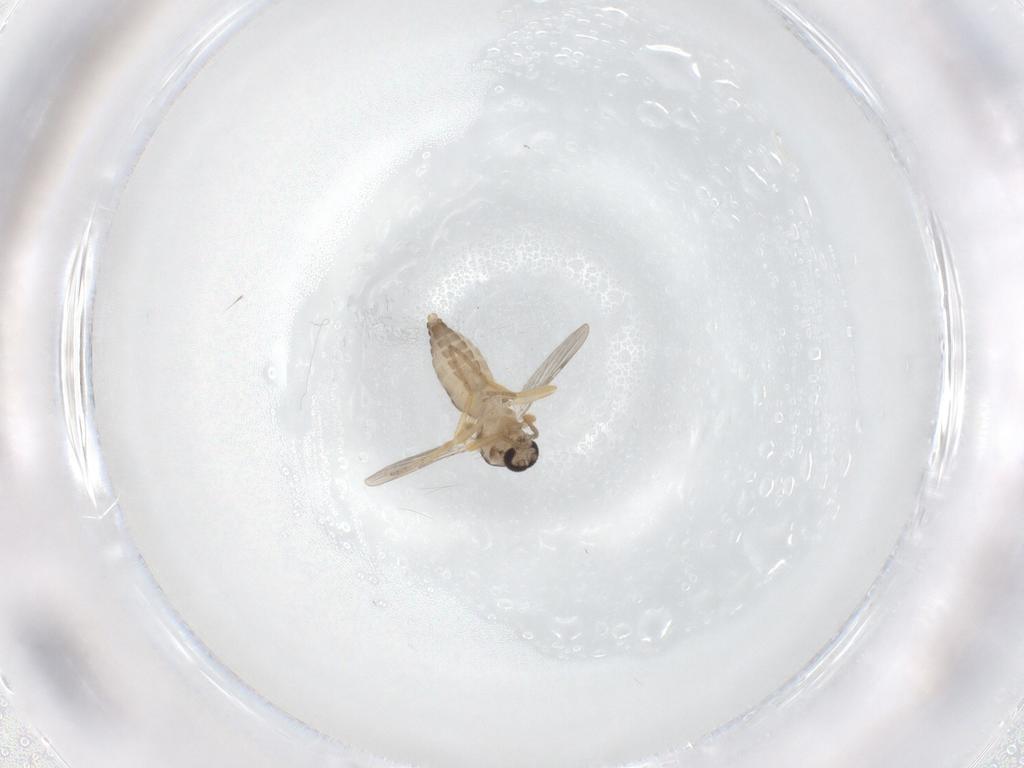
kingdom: Animalia
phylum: Arthropoda
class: Insecta
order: Diptera
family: Ceratopogonidae
